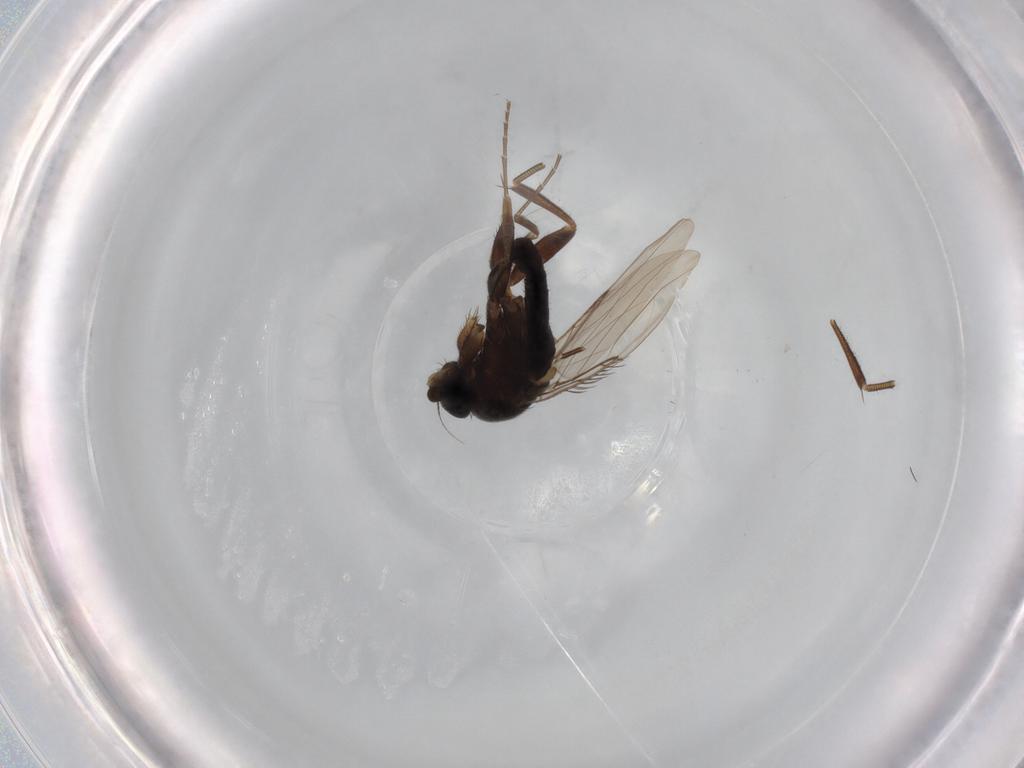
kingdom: Animalia
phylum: Arthropoda
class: Insecta
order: Diptera
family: Phoridae
